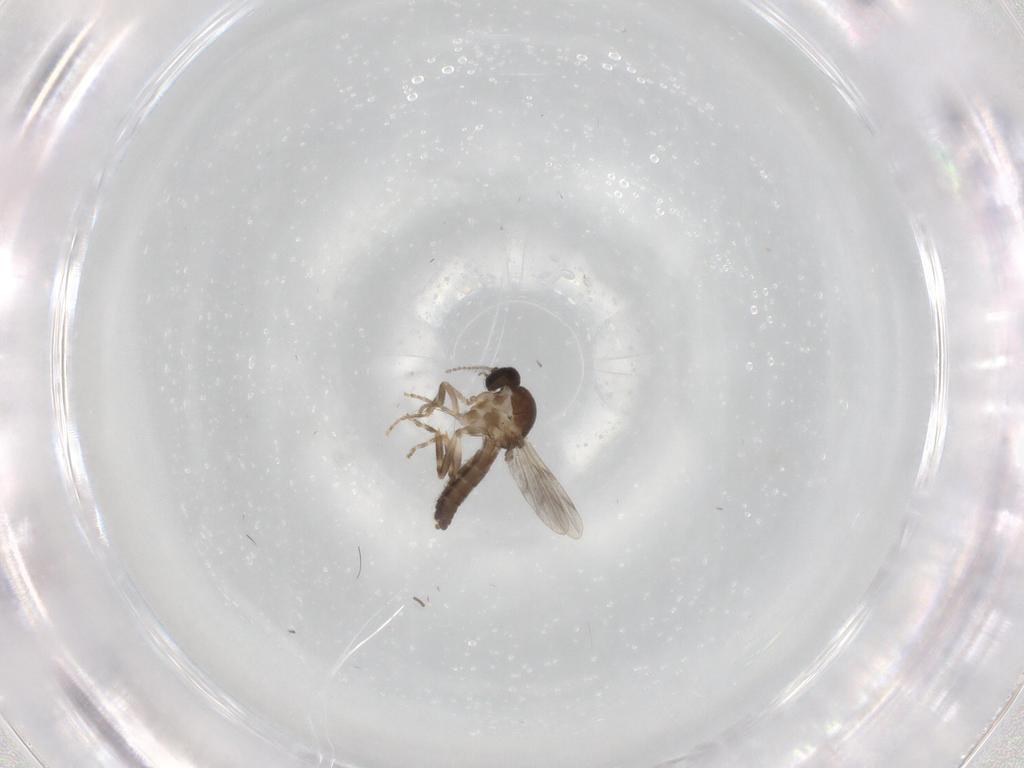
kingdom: Animalia
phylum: Arthropoda
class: Insecta
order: Diptera
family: Ceratopogonidae
